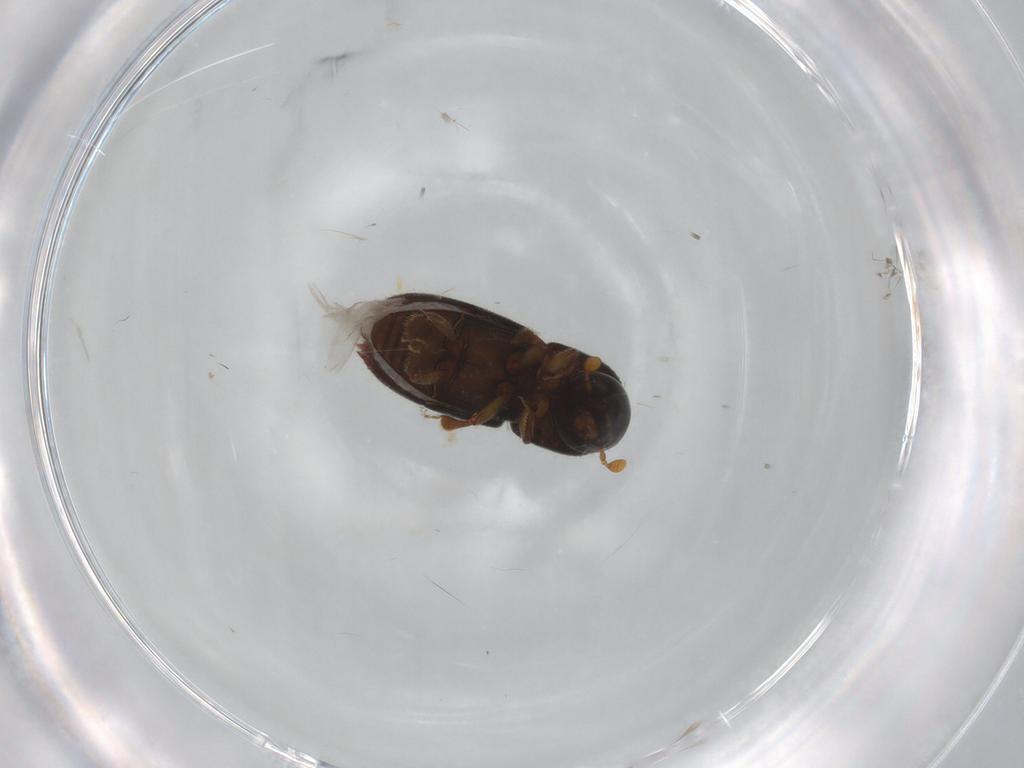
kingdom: Animalia
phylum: Arthropoda
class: Insecta
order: Coleoptera
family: Curculionidae
